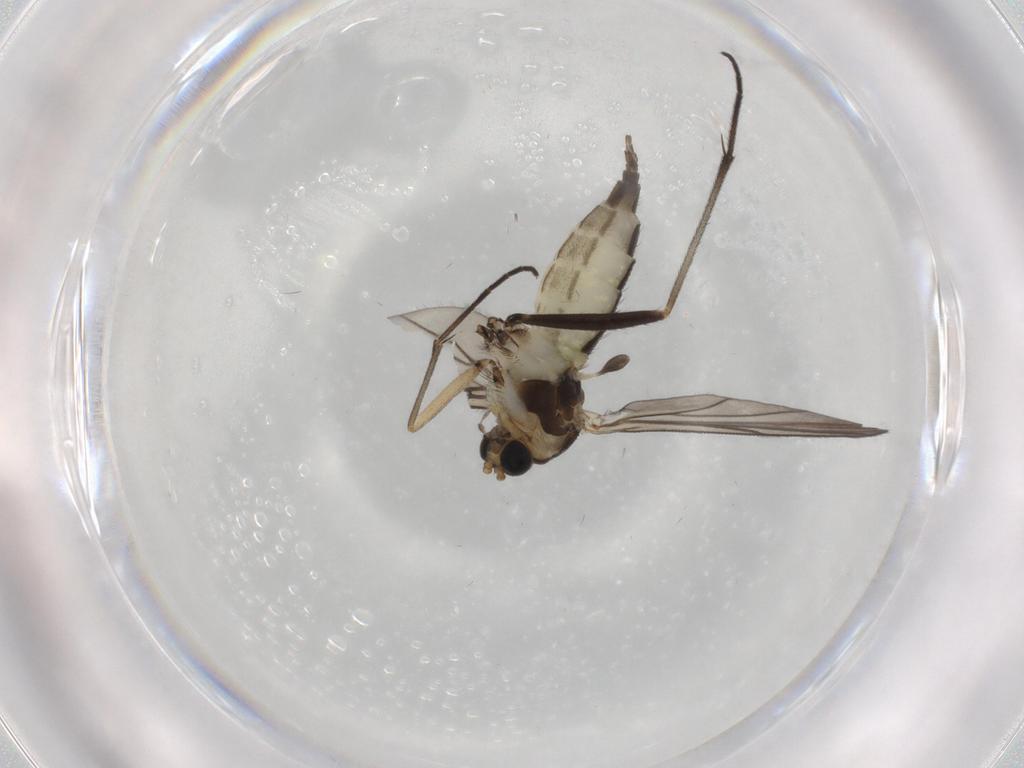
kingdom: Animalia
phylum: Arthropoda
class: Insecta
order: Diptera
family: Sciaridae
